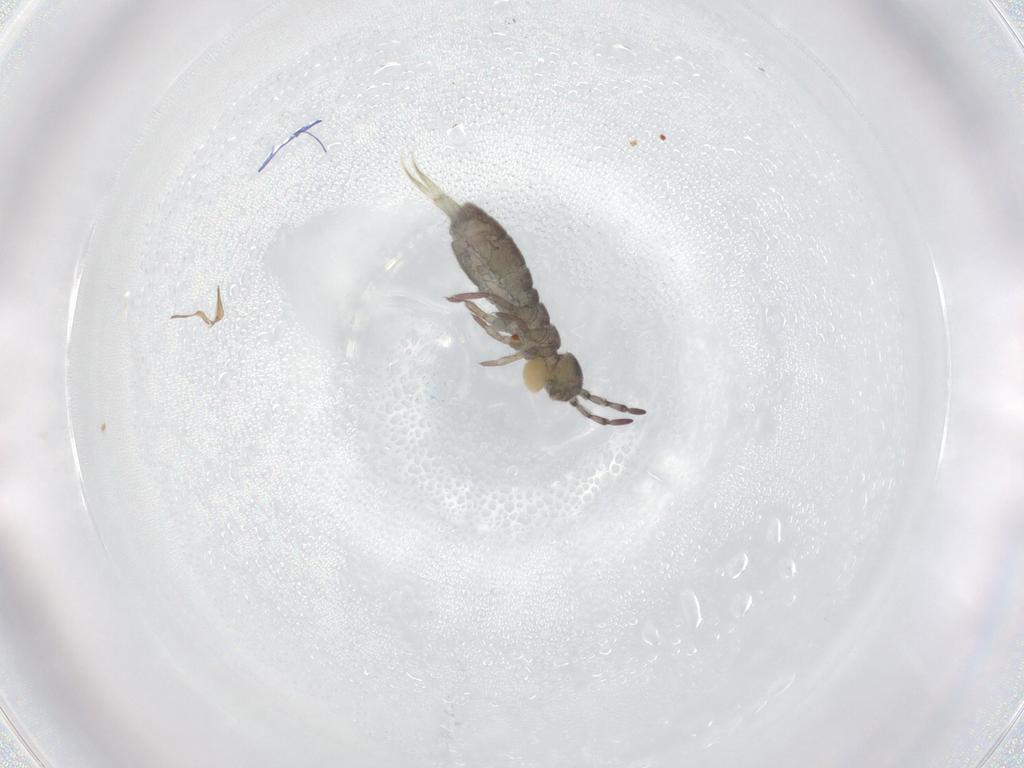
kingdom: Animalia
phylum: Arthropoda
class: Collembola
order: Entomobryomorpha
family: Isotomidae
